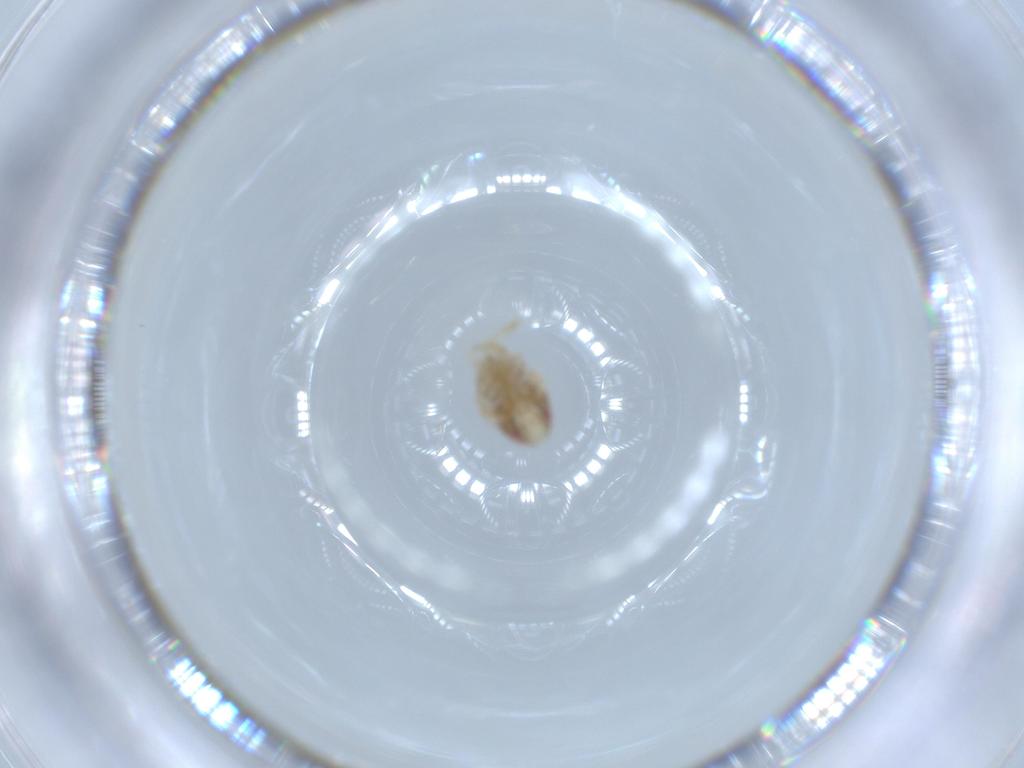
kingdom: Animalia
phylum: Arthropoda
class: Insecta
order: Hemiptera
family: Acanaloniidae
